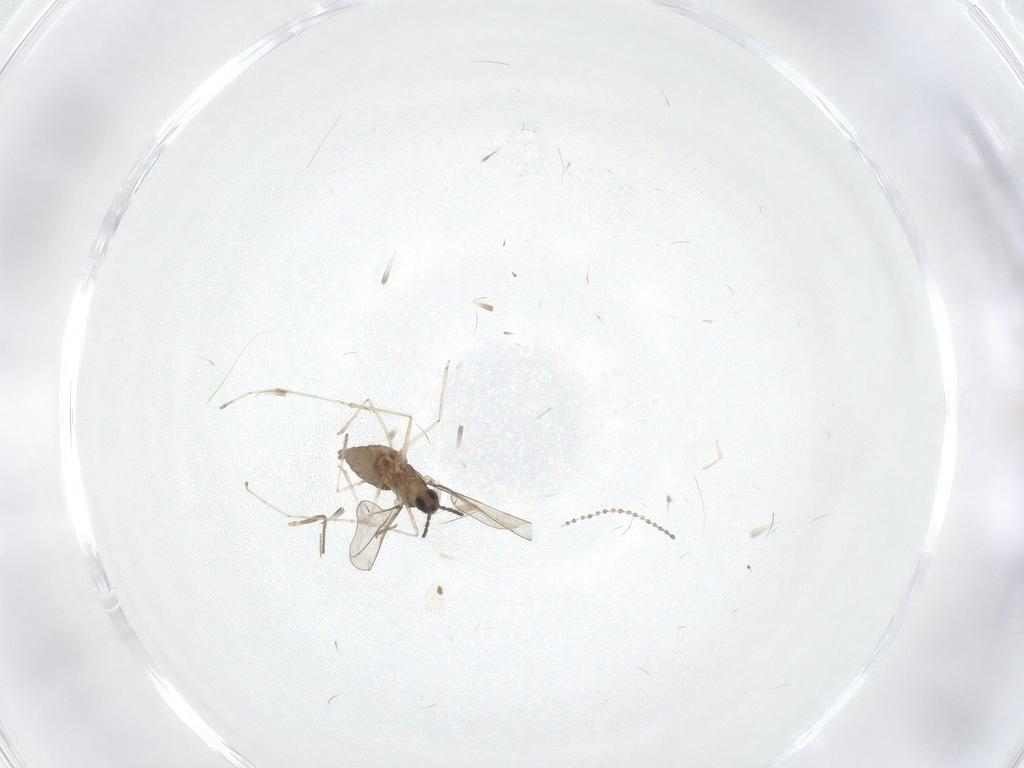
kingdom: Animalia
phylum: Arthropoda
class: Insecta
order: Diptera
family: Cecidomyiidae
